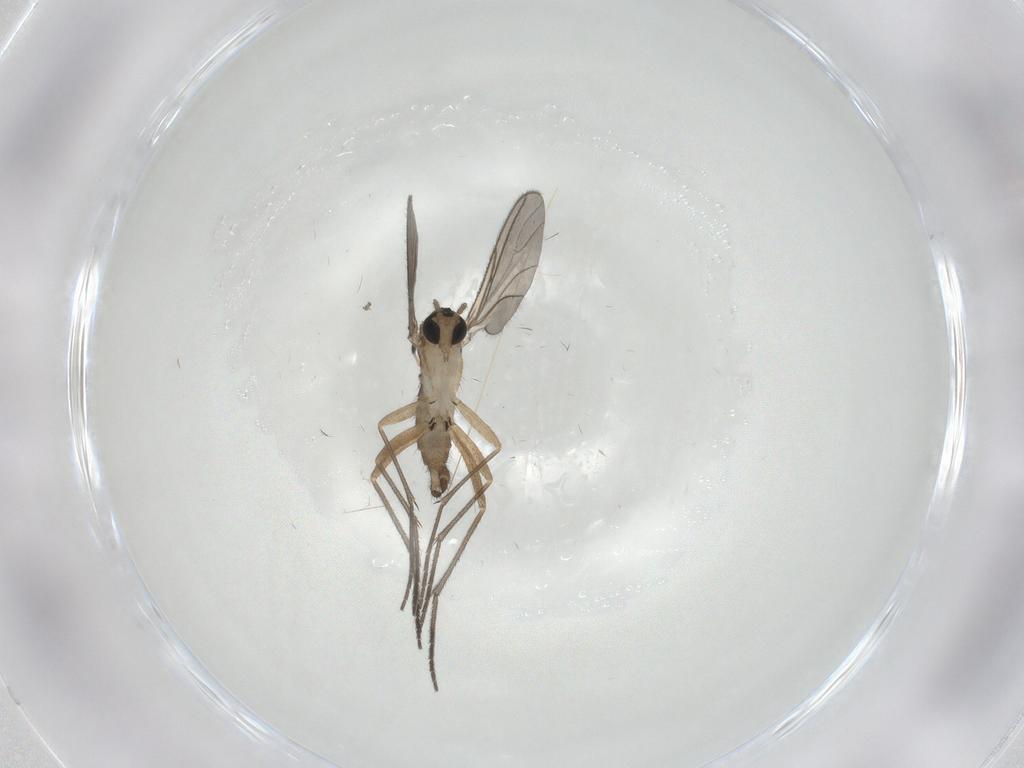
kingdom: Animalia
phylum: Arthropoda
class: Insecta
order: Diptera
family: Sciaridae
